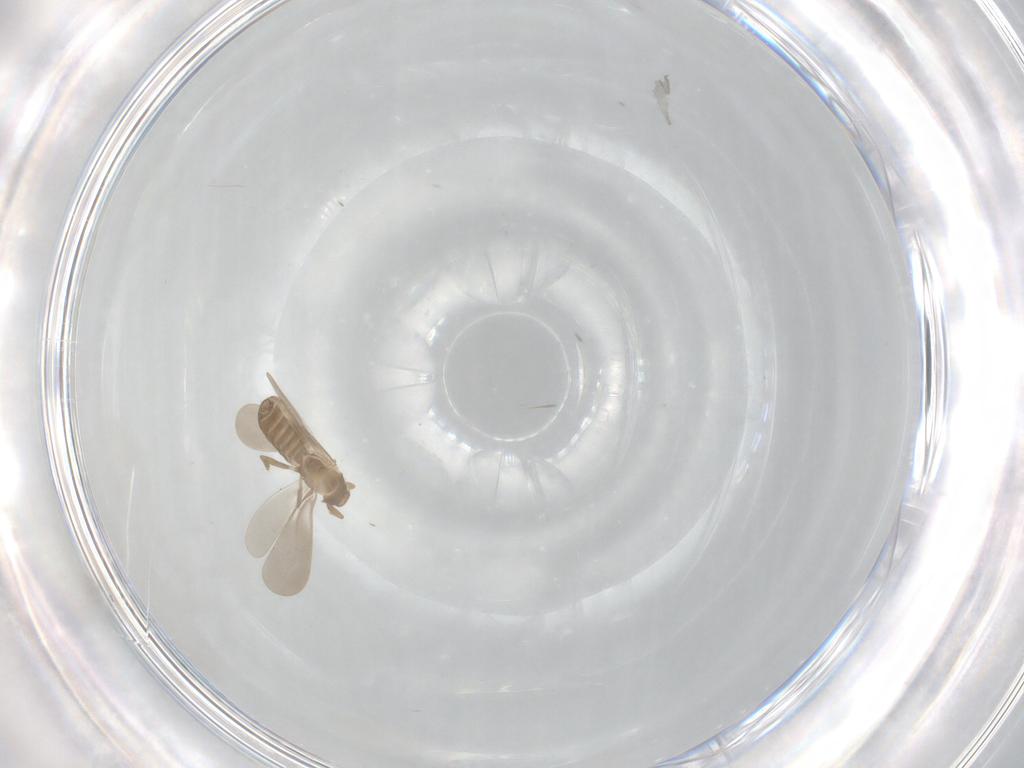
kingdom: Animalia
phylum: Arthropoda
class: Insecta
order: Hemiptera
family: Enicocephalidae
